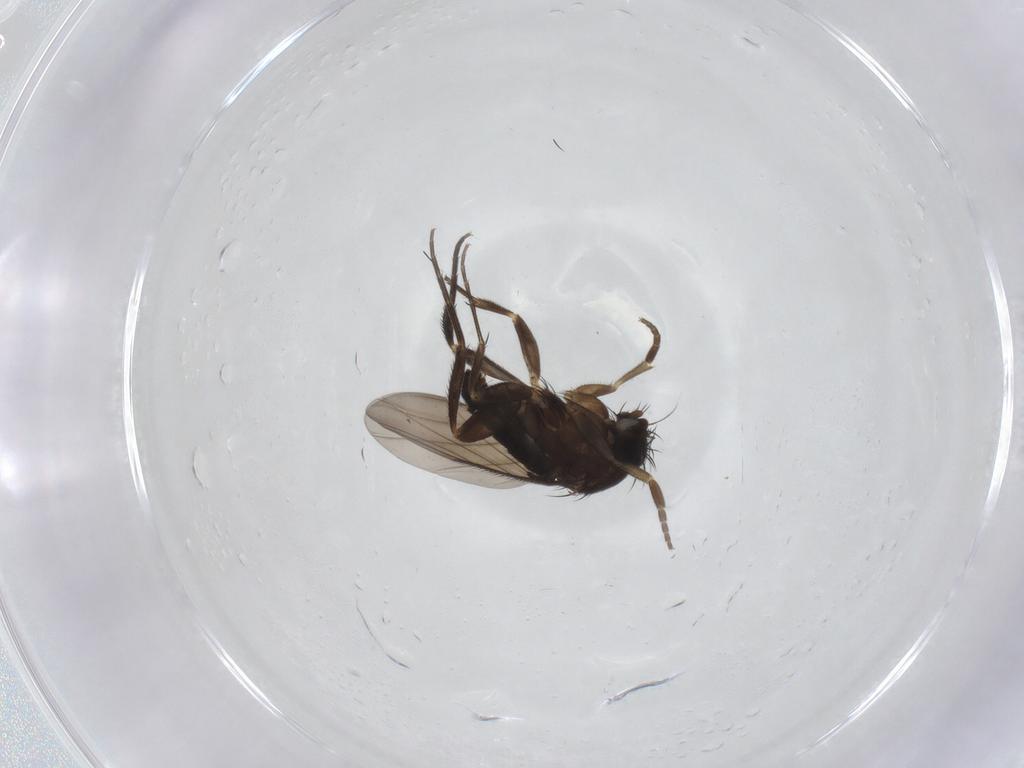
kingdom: Animalia
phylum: Arthropoda
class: Insecta
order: Diptera
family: Phoridae
